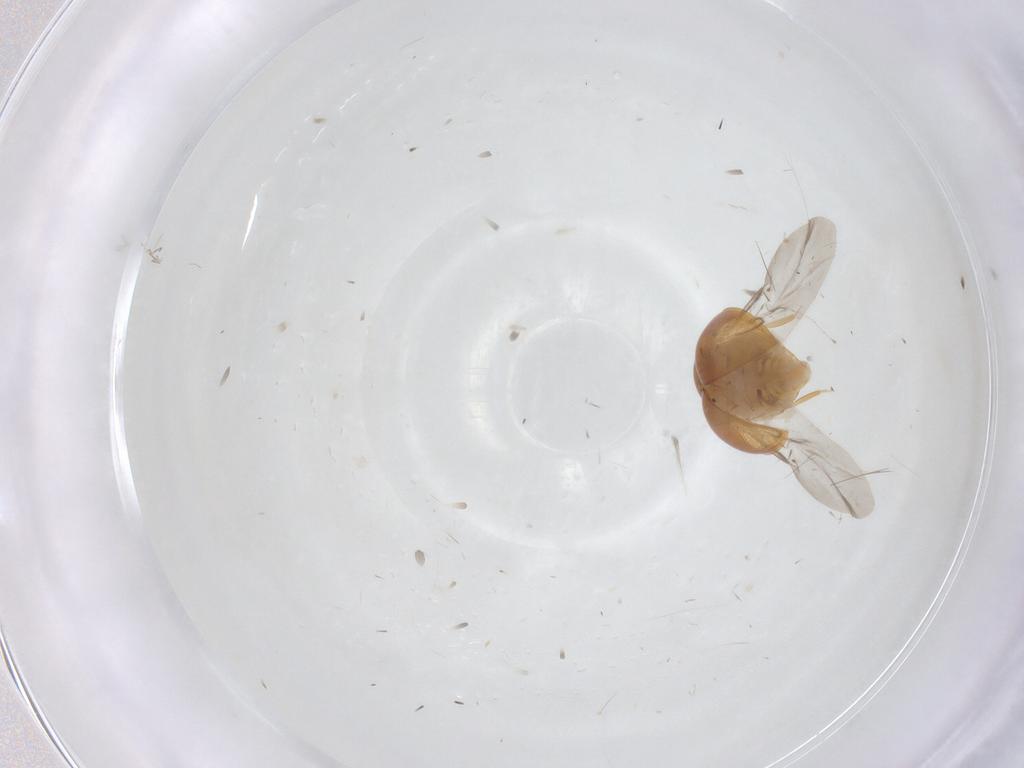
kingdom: Animalia
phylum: Arthropoda
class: Insecta
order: Coleoptera
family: Phalacridae
